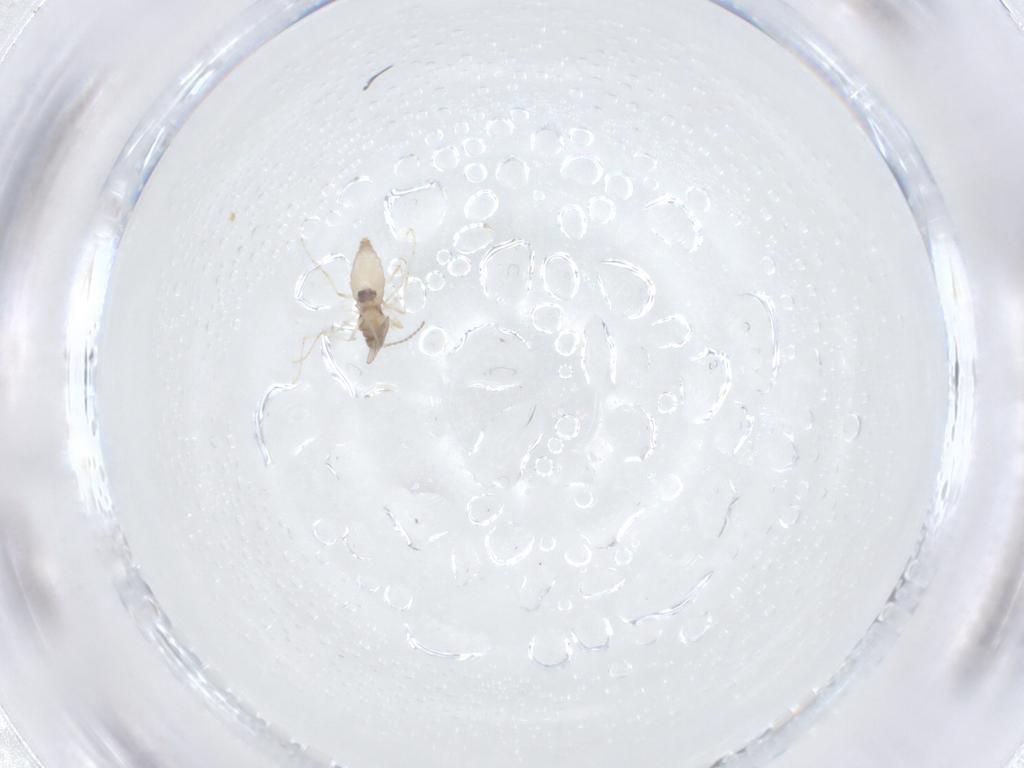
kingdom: Animalia
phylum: Arthropoda
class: Insecta
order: Diptera
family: Cecidomyiidae
